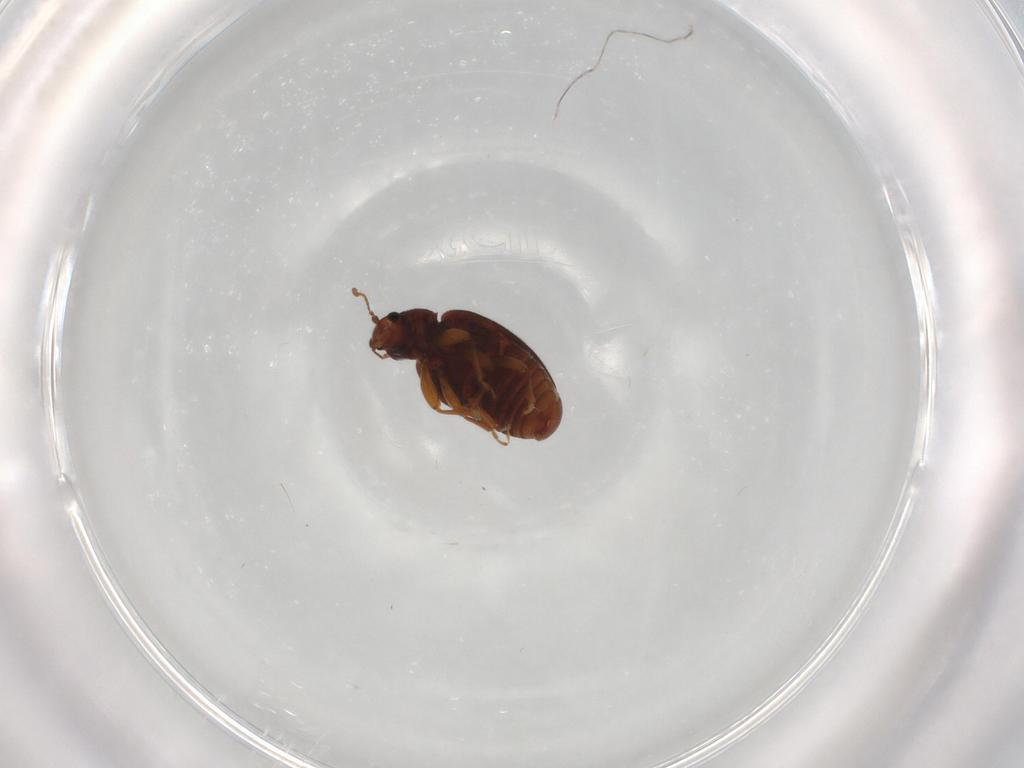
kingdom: Animalia
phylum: Arthropoda
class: Insecta
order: Coleoptera
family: Latridiidae
